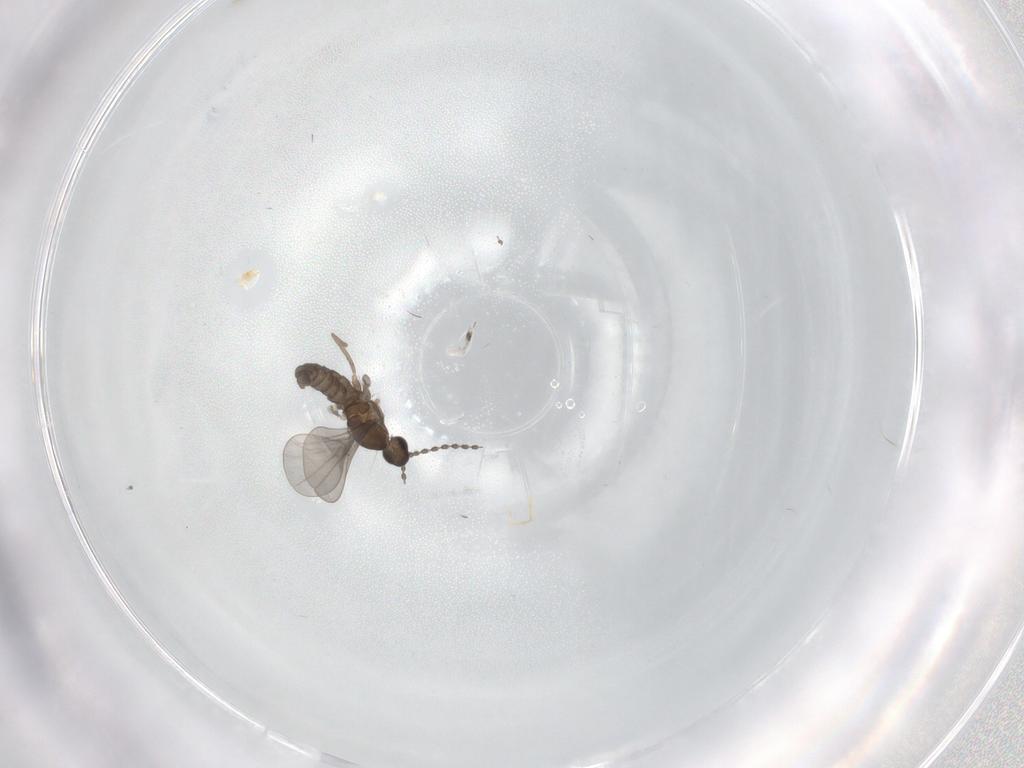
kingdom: Animalia
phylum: Arthropoda
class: Insecta
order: Diptera
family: Cecidomyiidae
